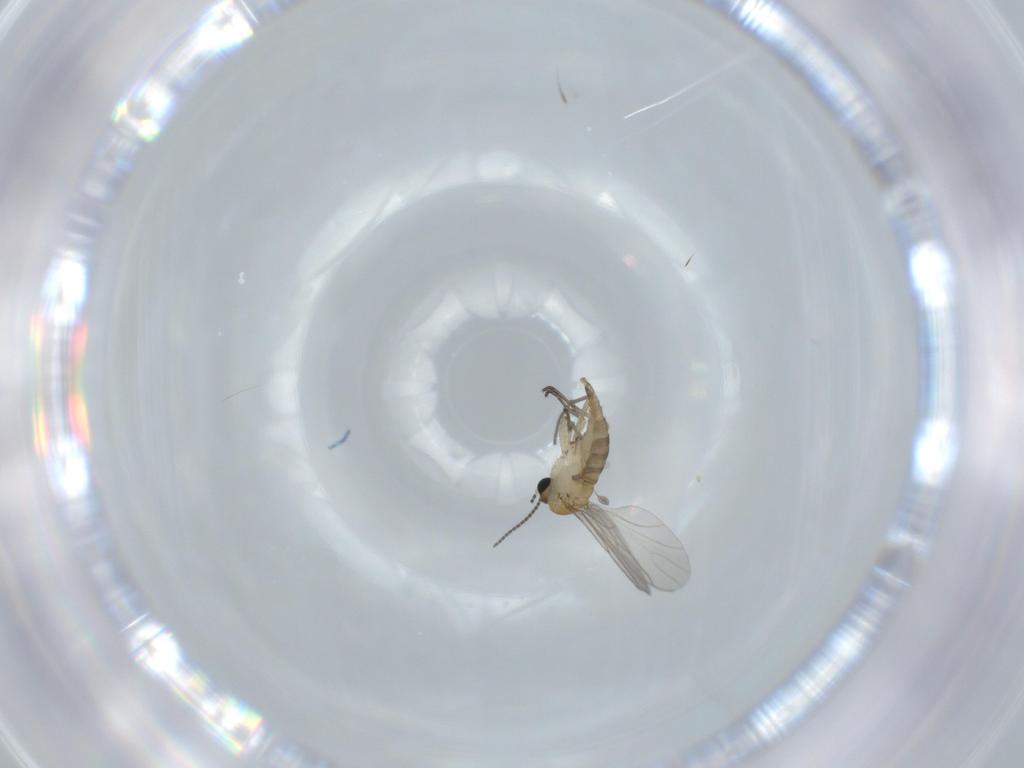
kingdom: Animalia
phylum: Arthropoda
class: Insecta
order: Diptera
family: Sciaridae
